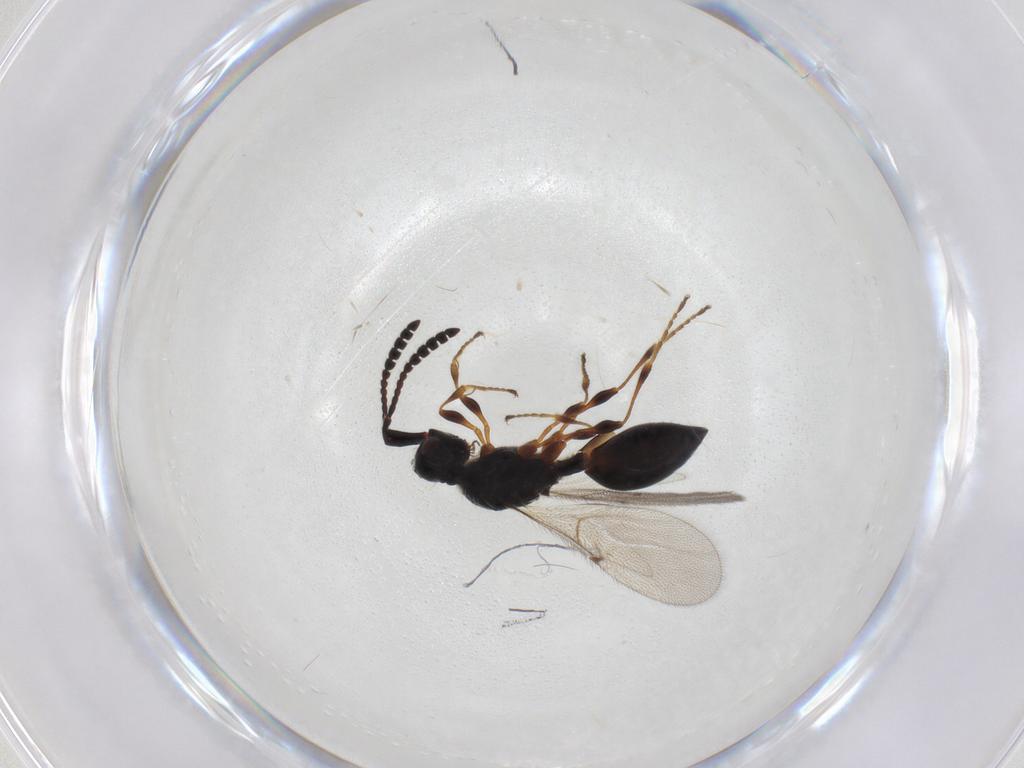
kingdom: Animalia
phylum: Arthropoda
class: Insecta
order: Hymenoptera
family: Diapriidae
